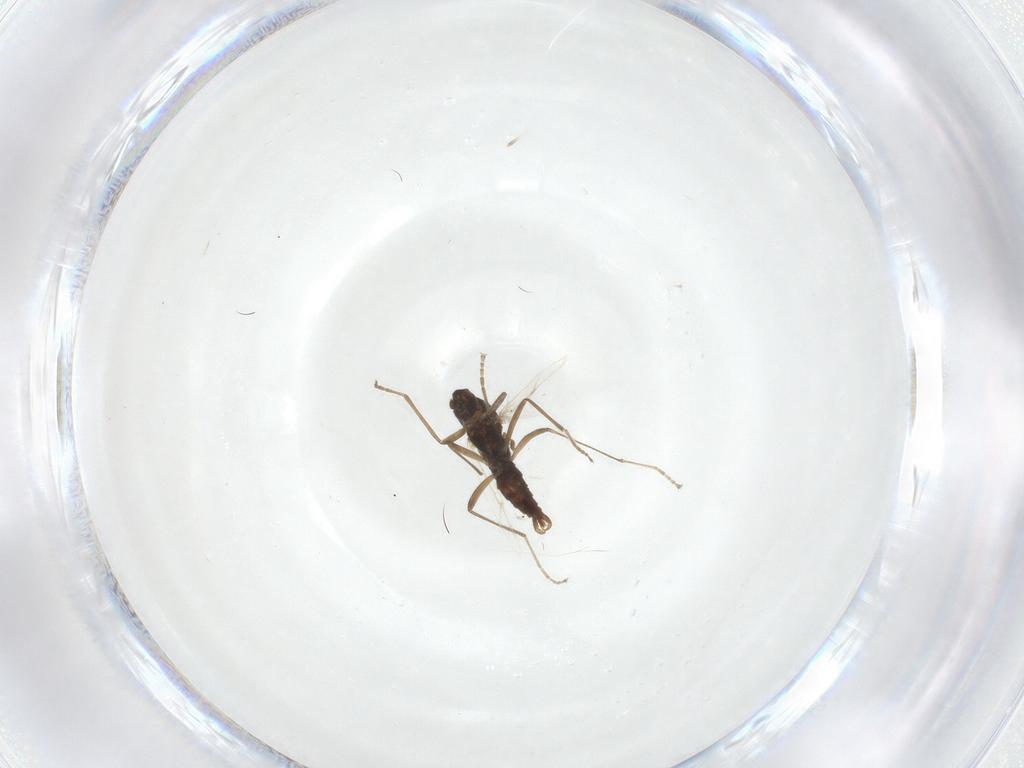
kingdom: Animalia
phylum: Arthropoda
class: Insecta
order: Diptera
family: Cecidomyiidae
